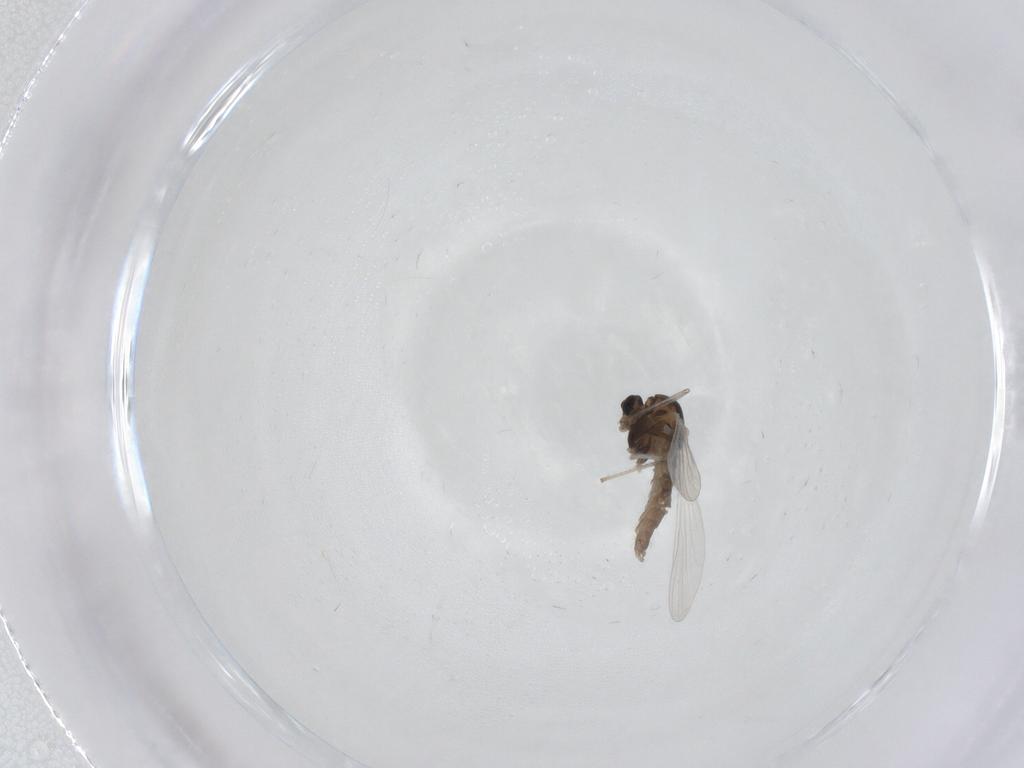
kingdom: Animalia
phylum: Arthropoda
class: Insecta
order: Diptera
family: Chironomidae
